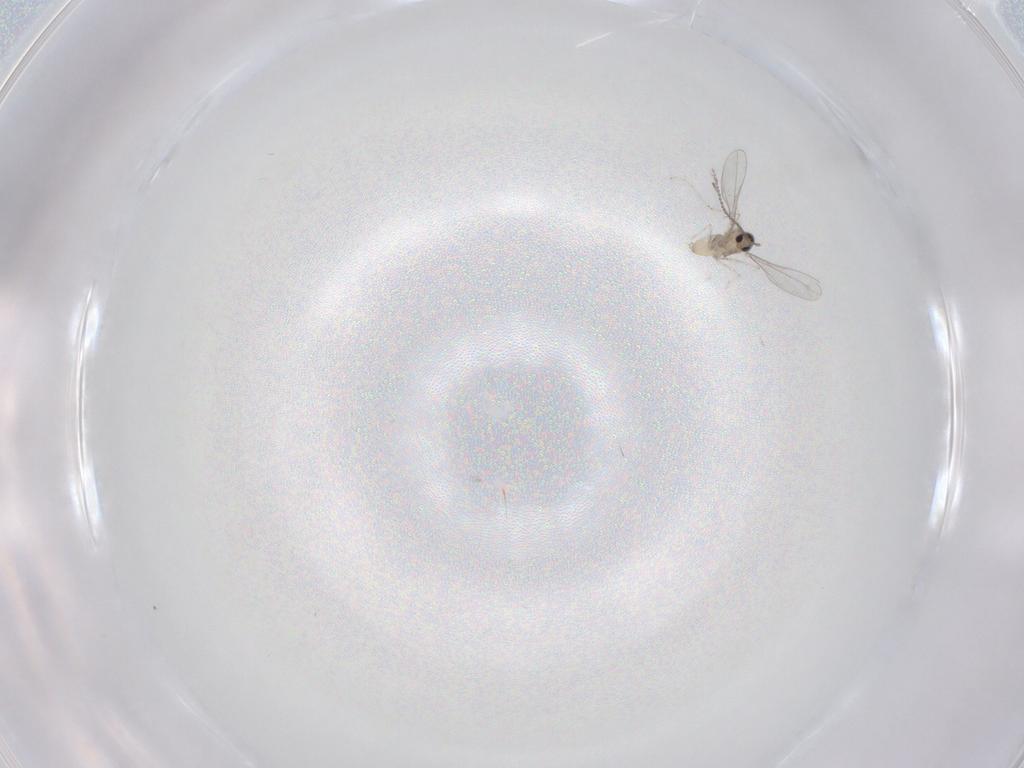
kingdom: Animalia
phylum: Arthropoda
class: Insecta
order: Diptera
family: Cecidomyiidae
